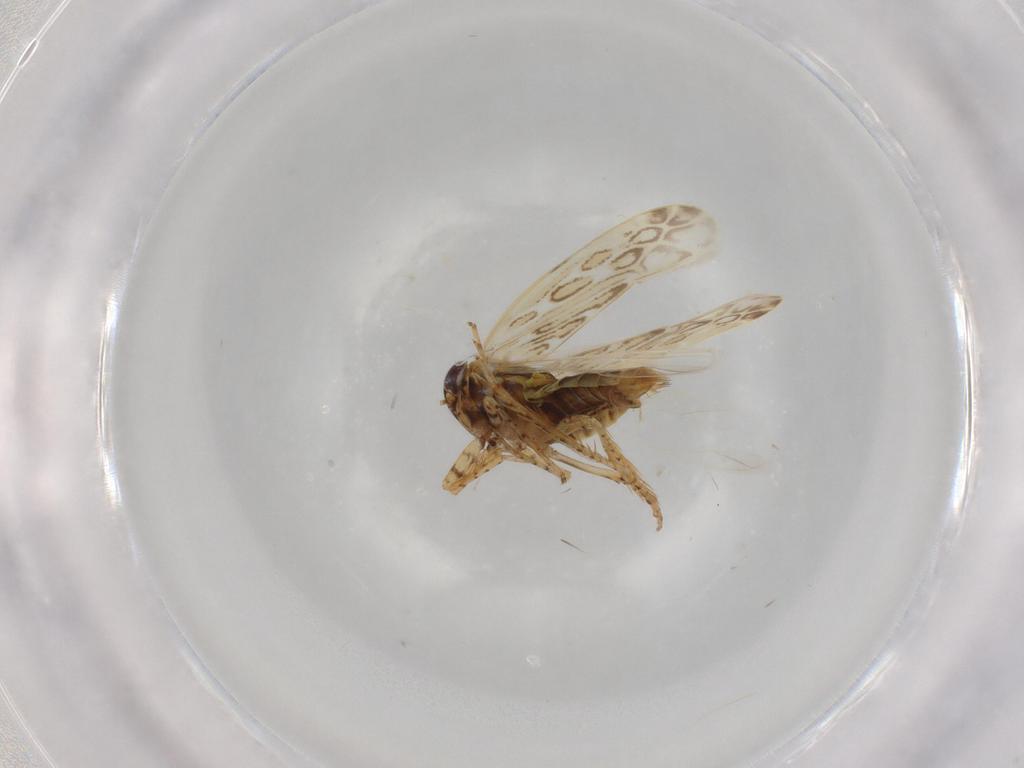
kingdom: Animalia
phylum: Arthropoda
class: Insecta
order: Hemiptera
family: Cicadellidae
